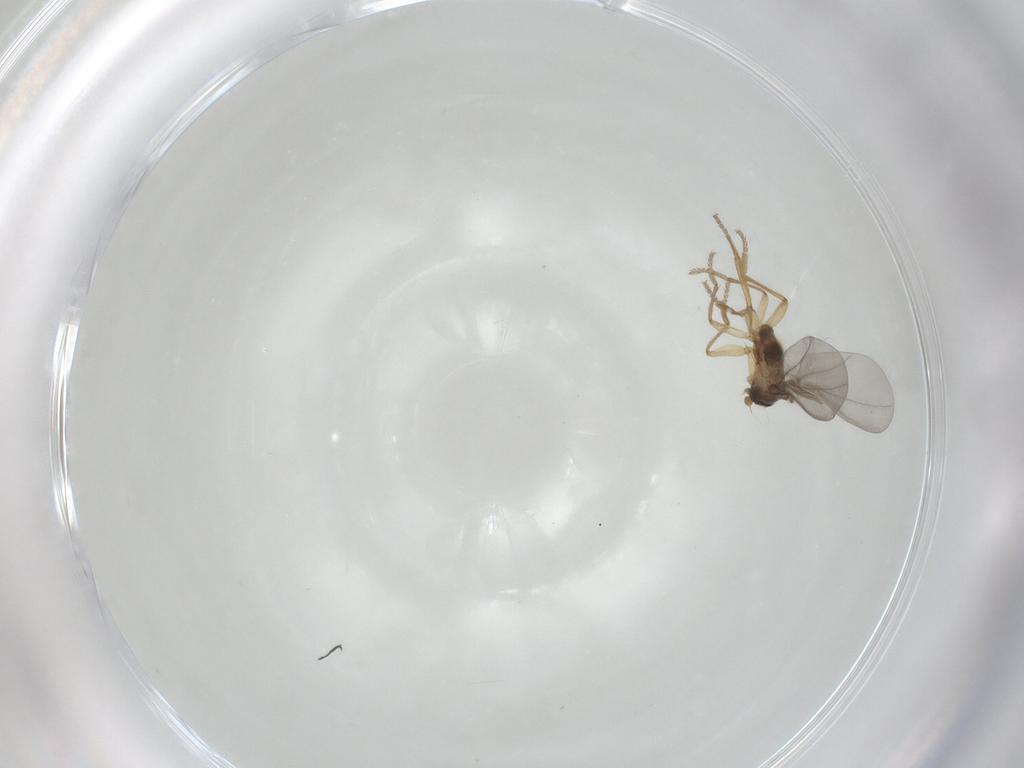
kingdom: Animalia
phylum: Arthropoda
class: Insecta
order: Diptera
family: Phoridae
